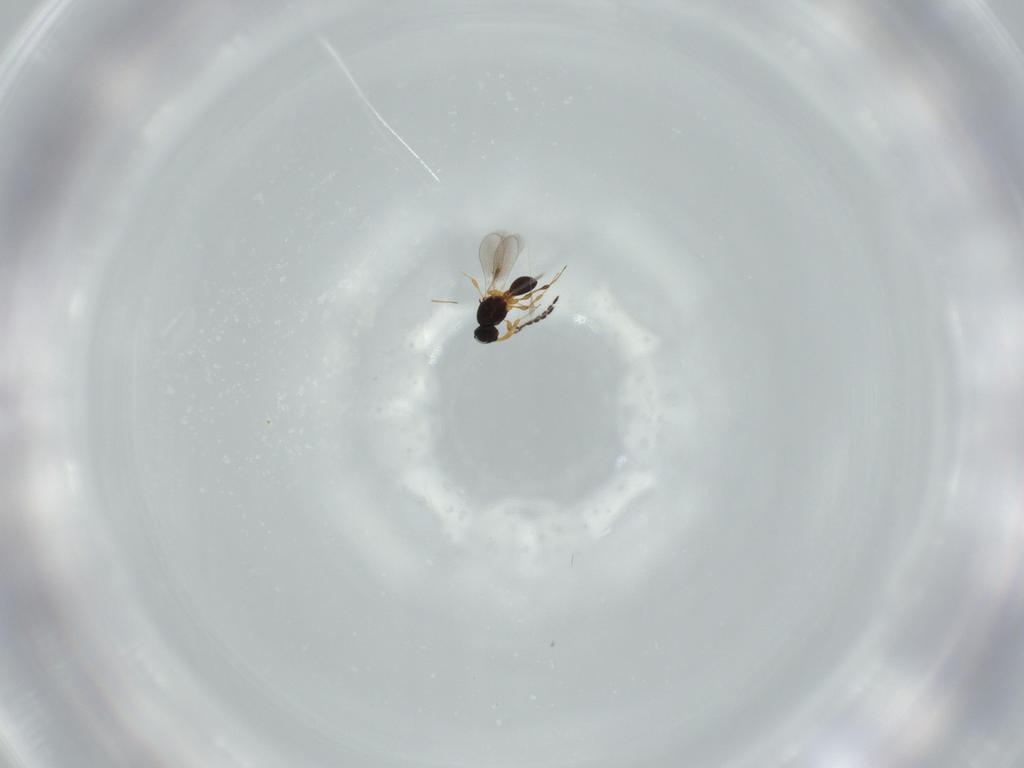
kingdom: Animalia
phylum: Arthropoda
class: Insecta
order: Hymenoptera
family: Platygastridae
